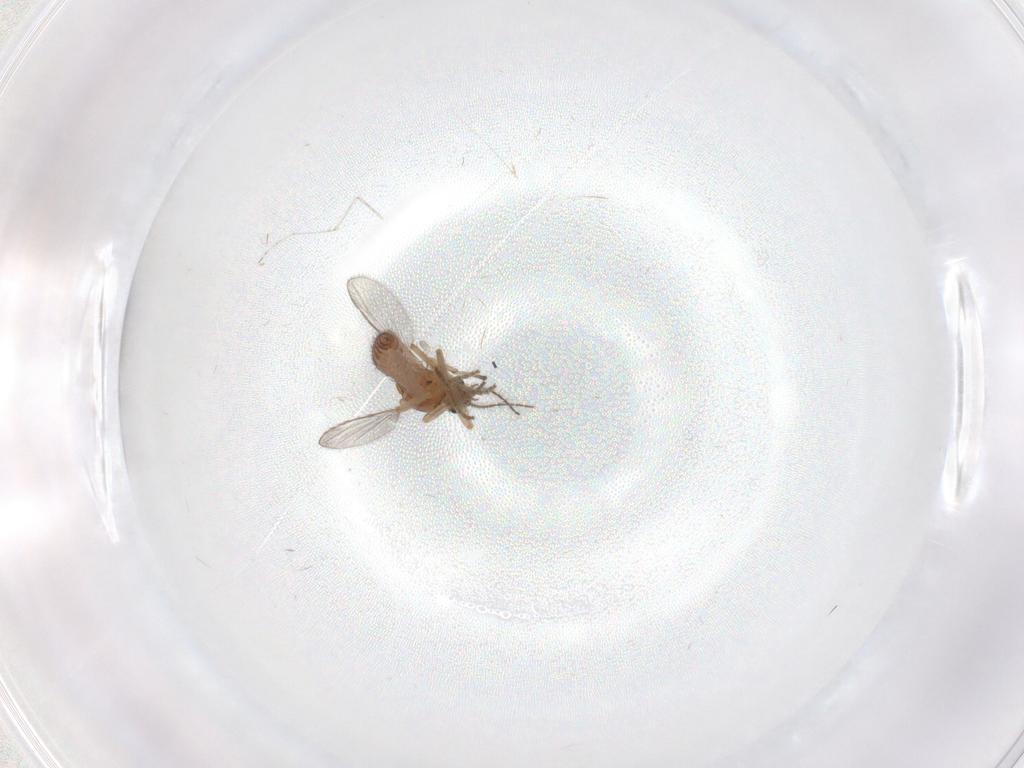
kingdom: Animalia
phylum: Arthropoda
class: Insecta
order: Diptera
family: Ceratopogonidae
